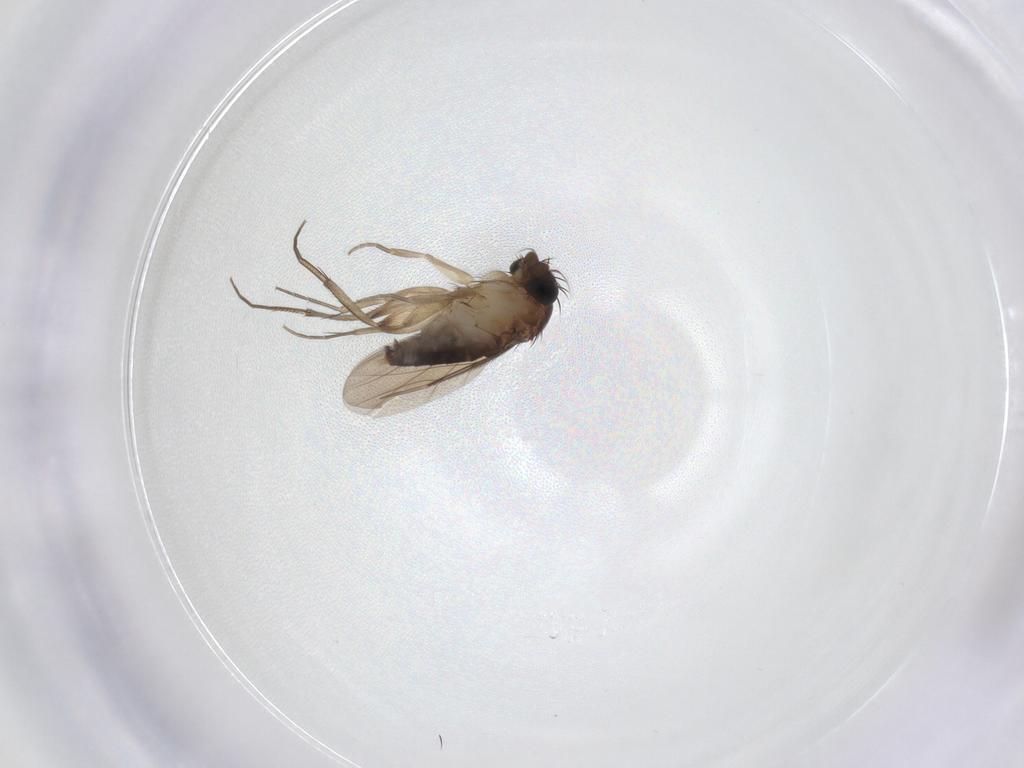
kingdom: Animalia
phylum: Arthropoda
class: Insecta
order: Diptera
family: Phoridae
